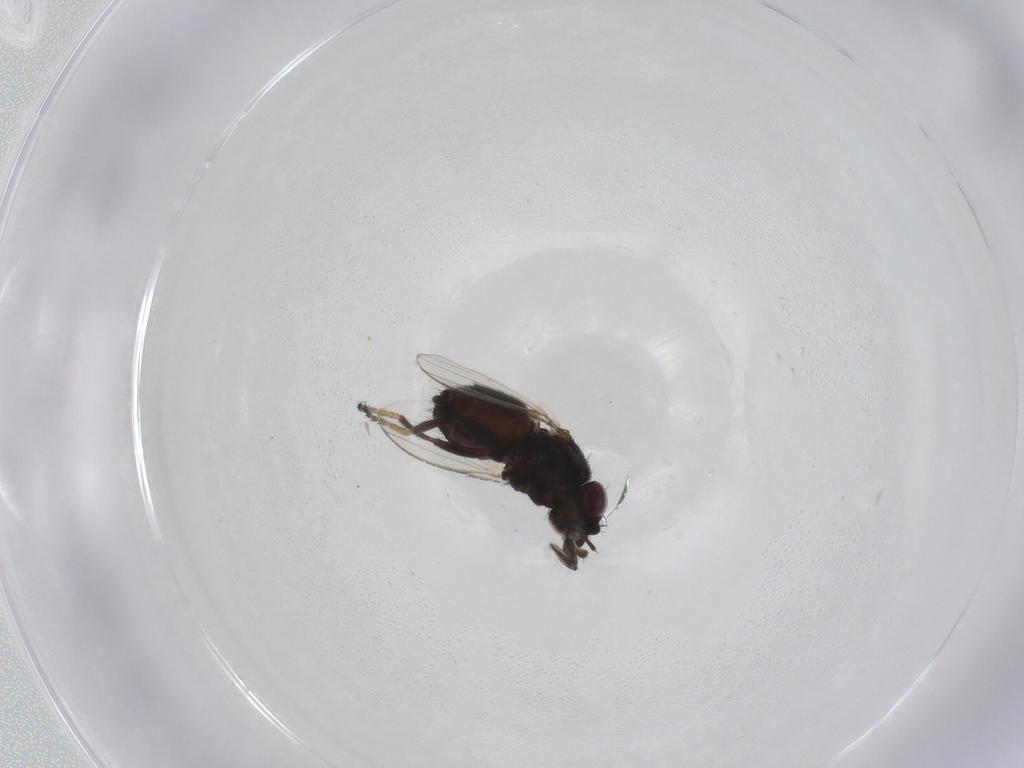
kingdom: Animalia
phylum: Arthropoda
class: Insecta
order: Diptera
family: Milichiidae
